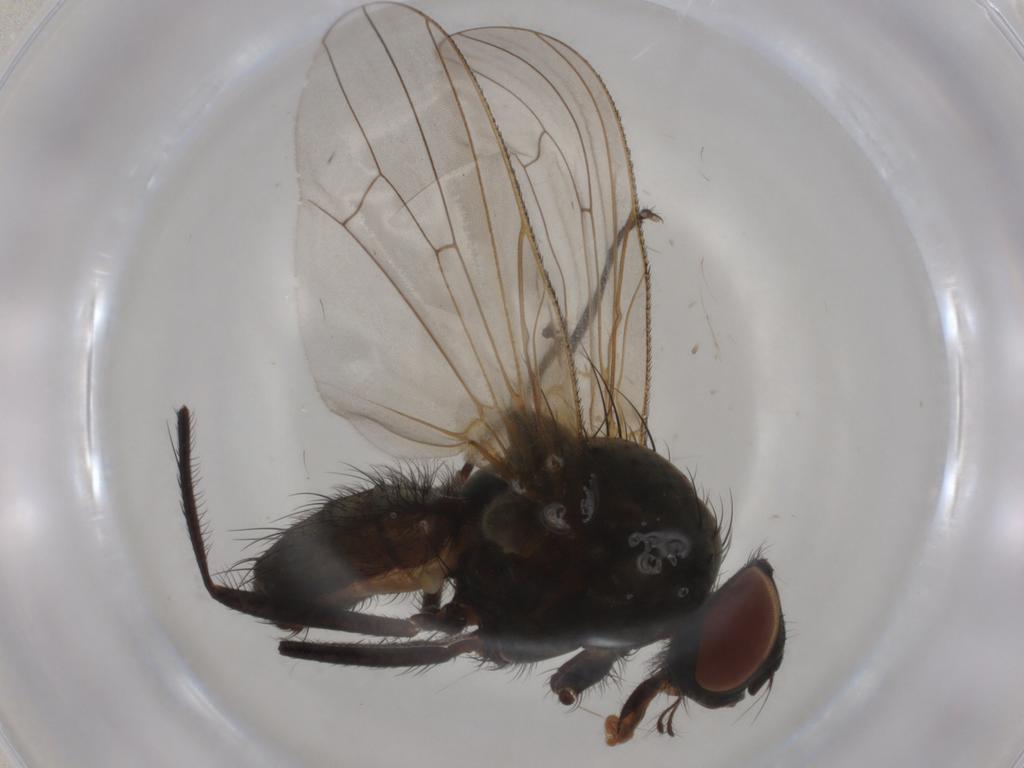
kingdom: Animalia
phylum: Arthropoda
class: Insecta
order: Diptera
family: Anthomyiidae
